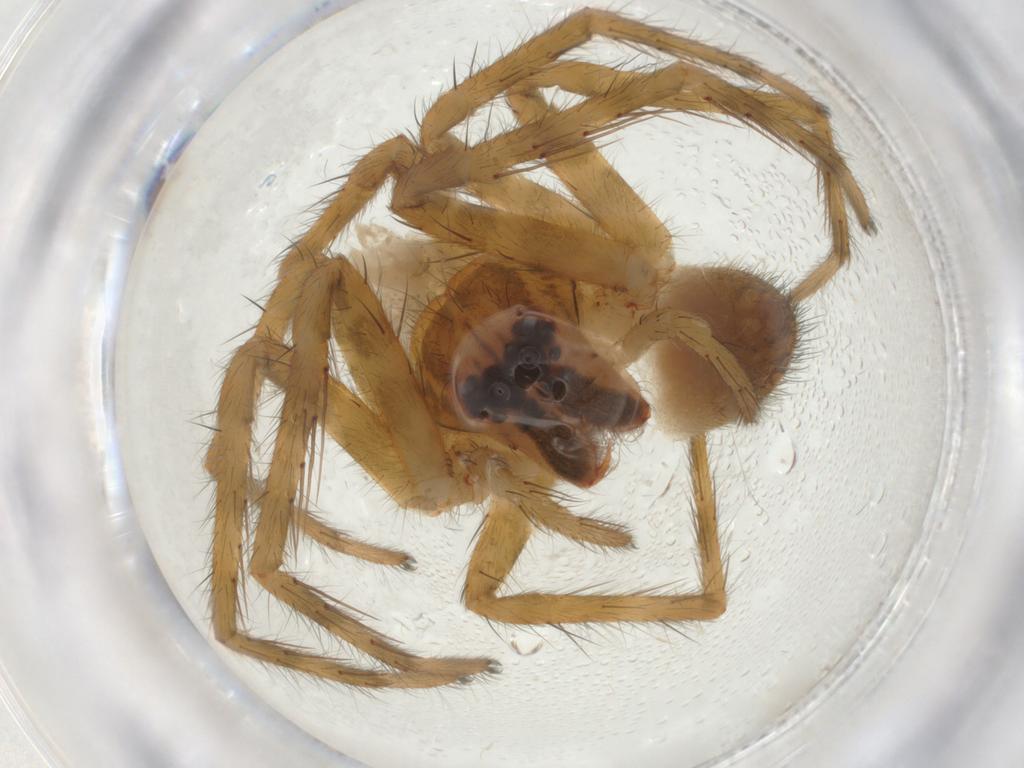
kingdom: Animalia
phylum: Arthropoda
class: Arachnida
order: Araneae
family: Trechaleidae
